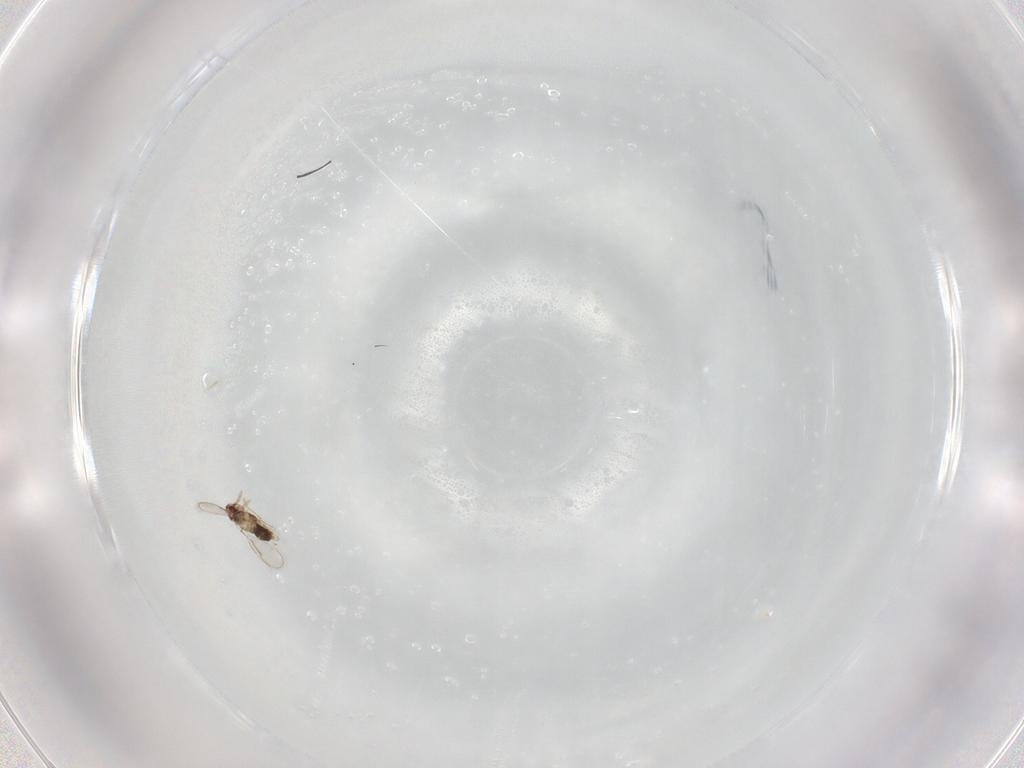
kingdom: Animalia
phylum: Arthropoda
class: Insecta
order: Hymenoptera
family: Aphelinidae
